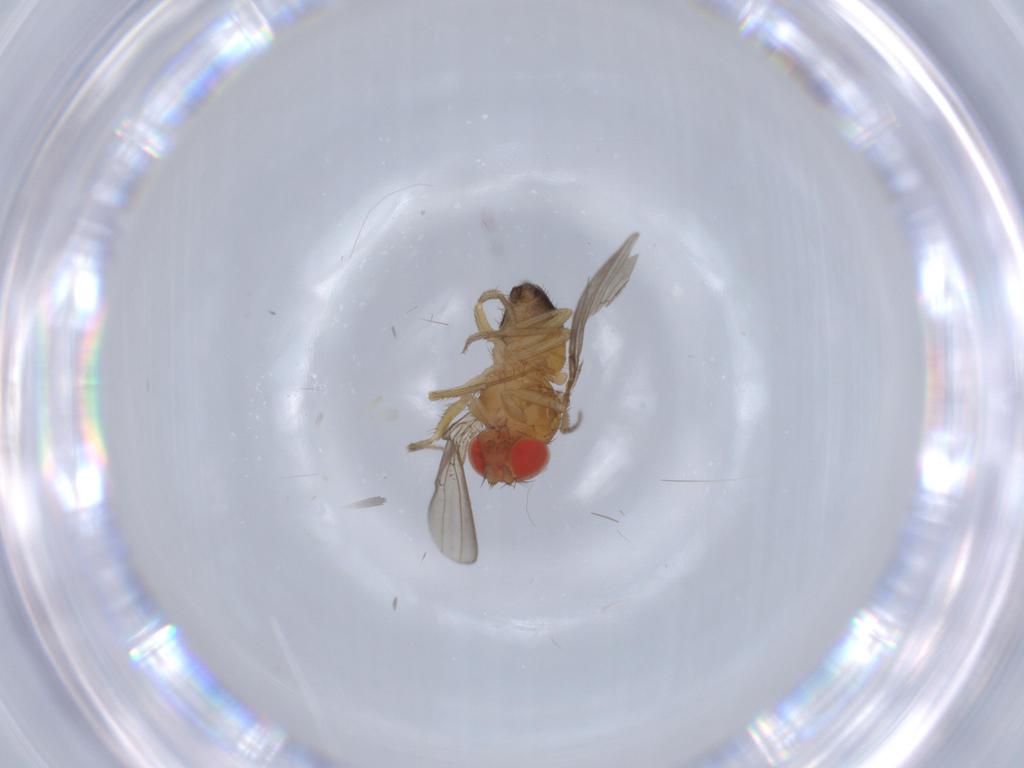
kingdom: Animalia
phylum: Arthropoda
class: Insecta
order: Diptera
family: Drosophilidae
